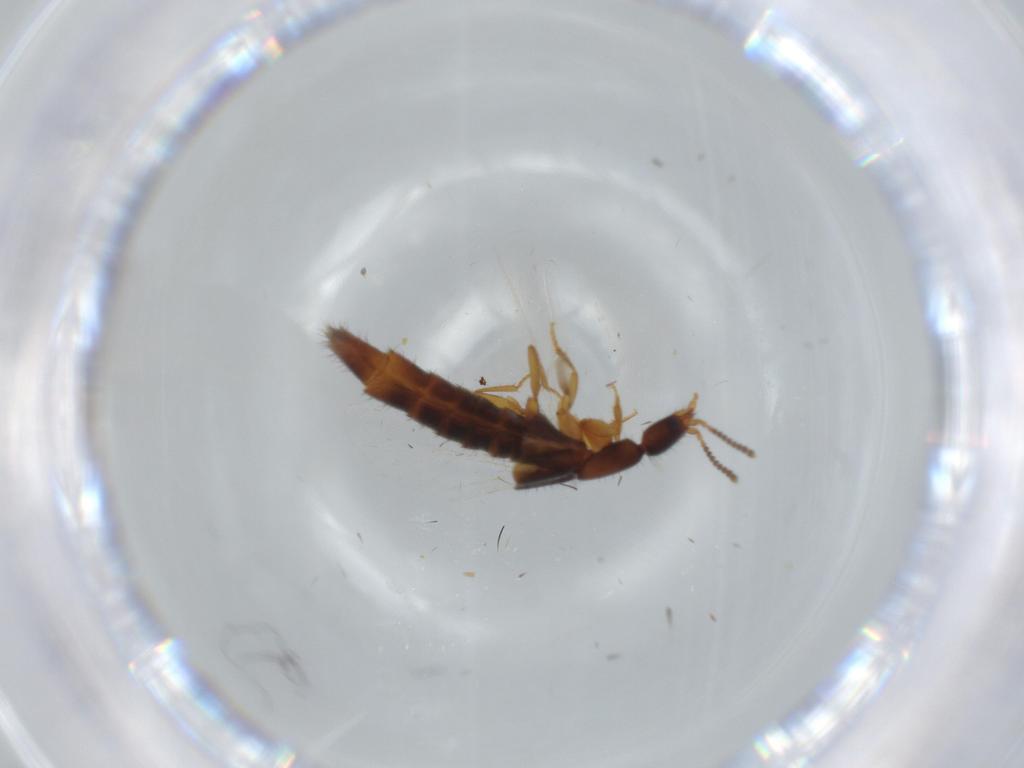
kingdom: Animalia
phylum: Arthropoda
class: Insecta
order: Coleoptera
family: Staphylinidae
